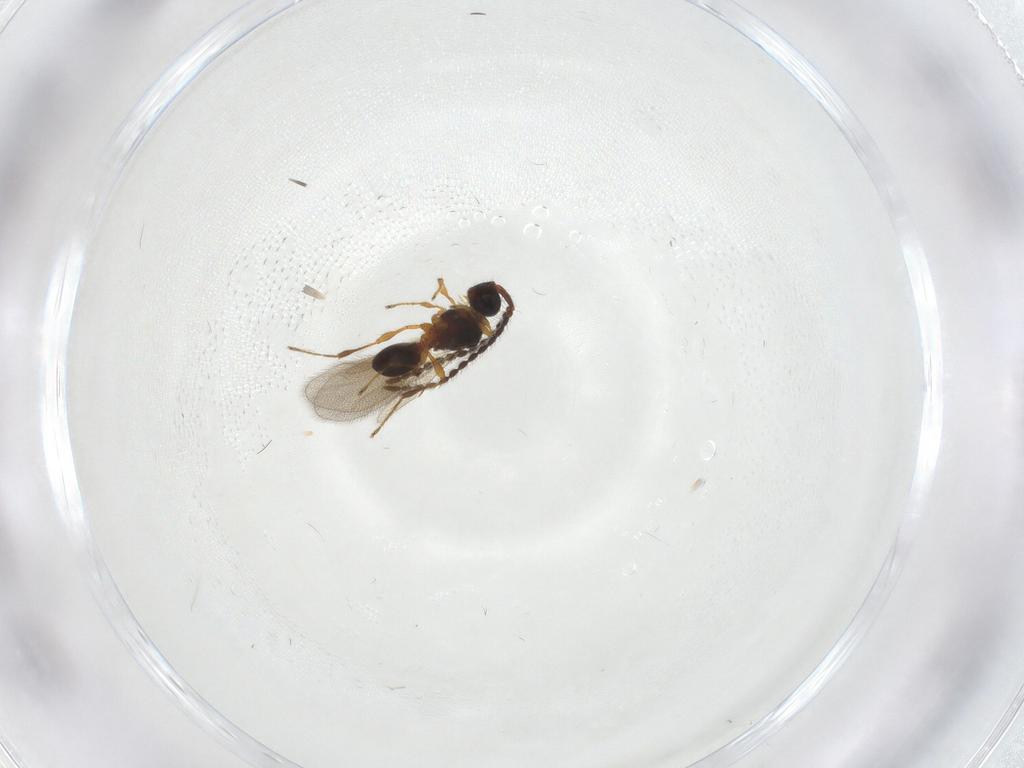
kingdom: Animalia
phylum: Arthropoda
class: Insecta
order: Hymenoptera
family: Diapriidae
